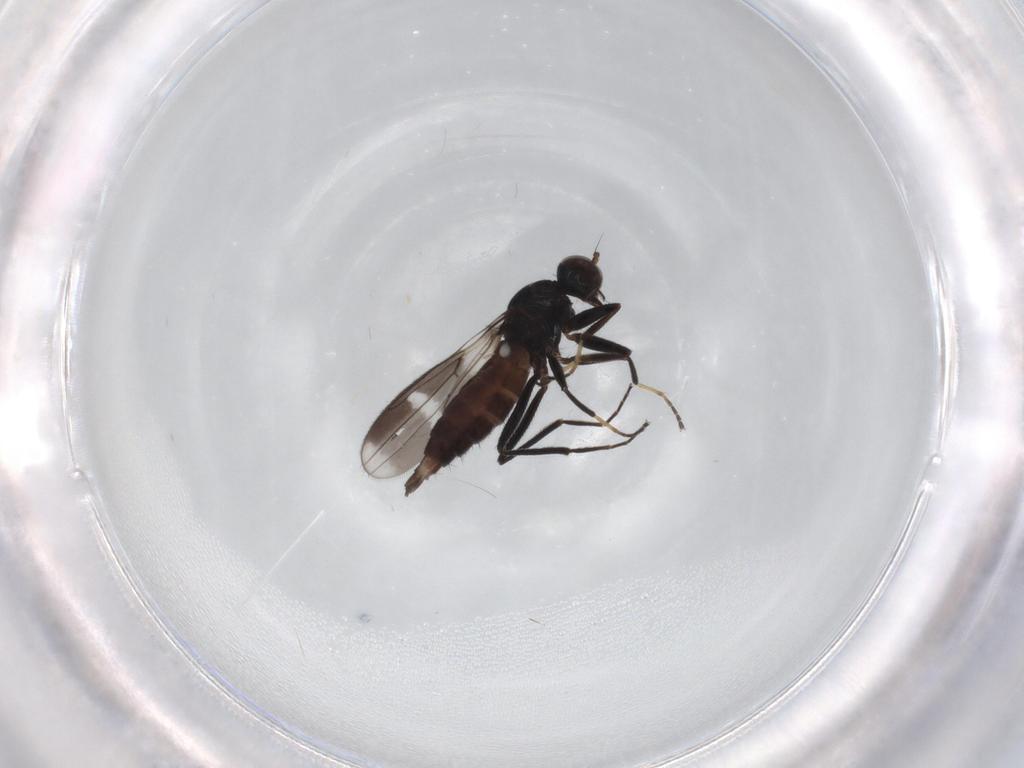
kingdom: Animalia
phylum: Arthropoda
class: Insecta
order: Diptera
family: Hybotidae
